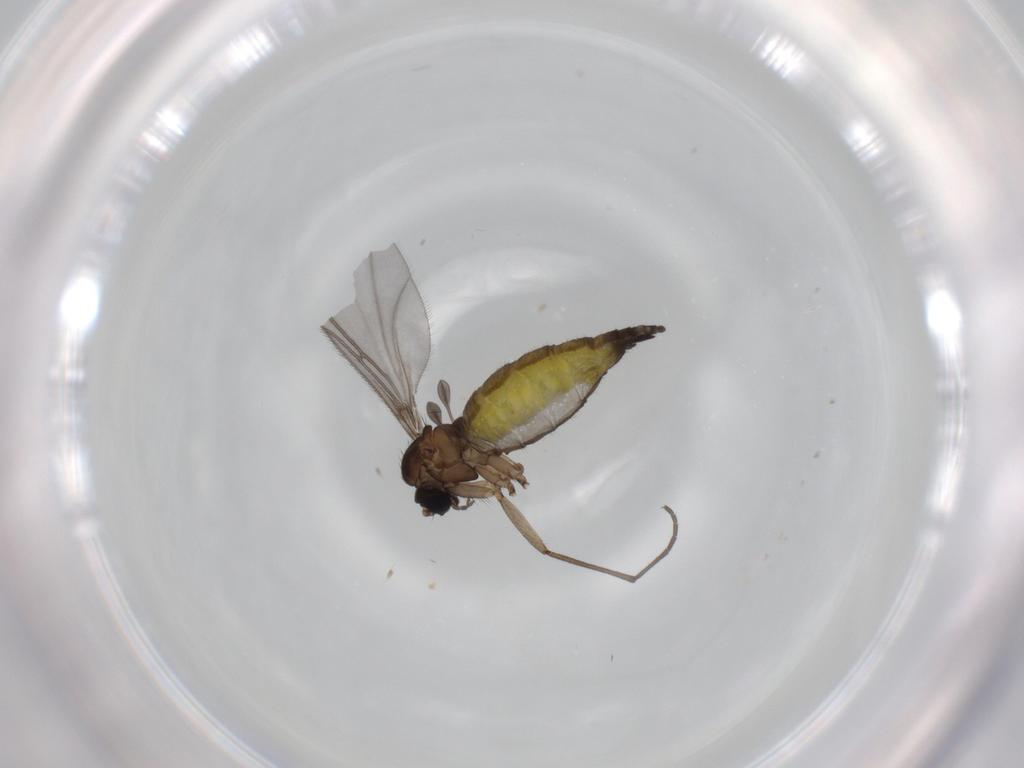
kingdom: Animalia
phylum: Arthropoda
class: Insecta
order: Diptera
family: Sciaridae
